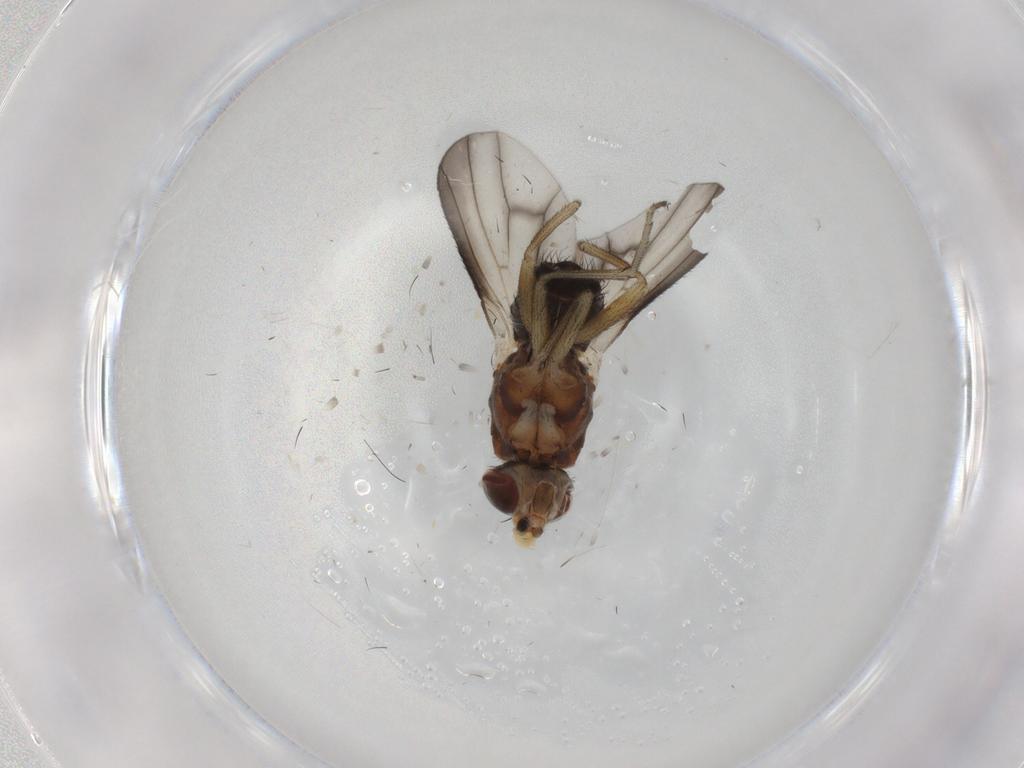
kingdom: Animalia
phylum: Arthropoda
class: Insecta
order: Diptera
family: Heleomyzidae
